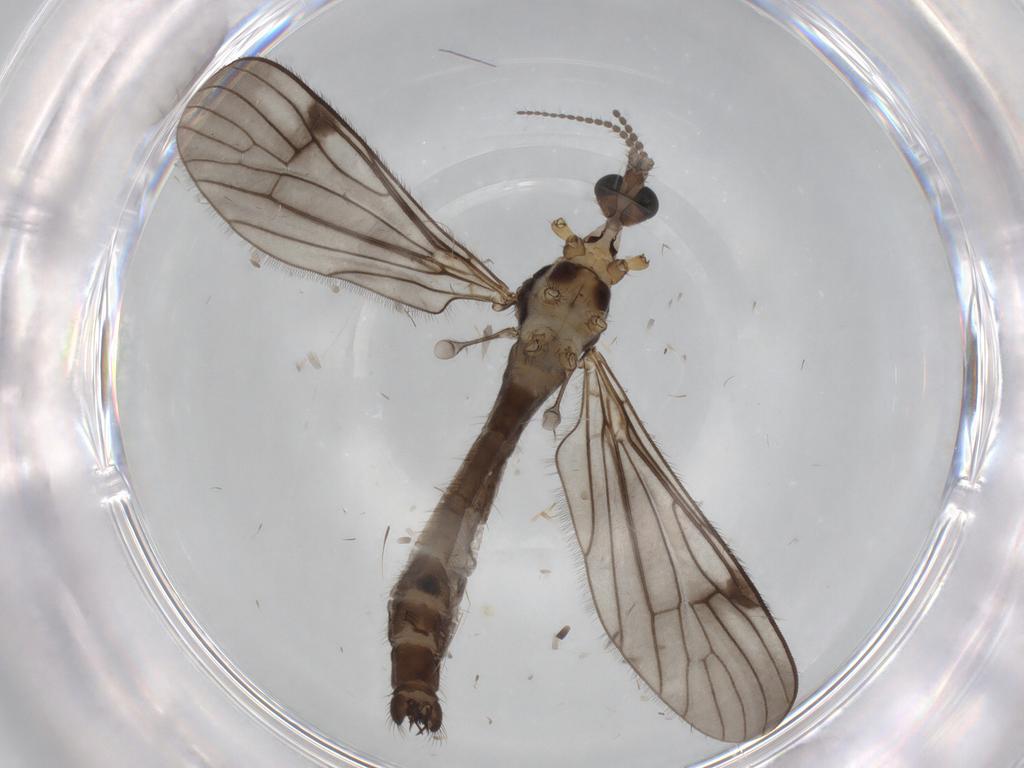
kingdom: Animalia
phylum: Arthropoda
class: Insecta
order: Diptera
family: Limoniidae
